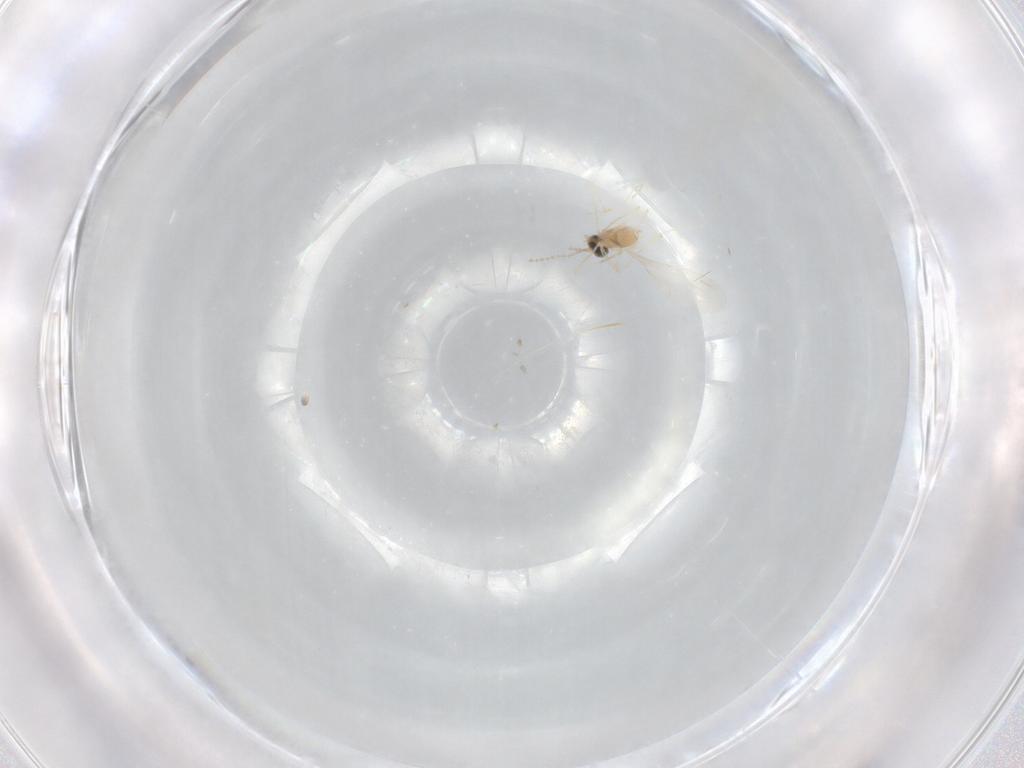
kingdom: Animalia
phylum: Arthropoda
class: Insecta
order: Diptera
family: Cecidomyiidae
